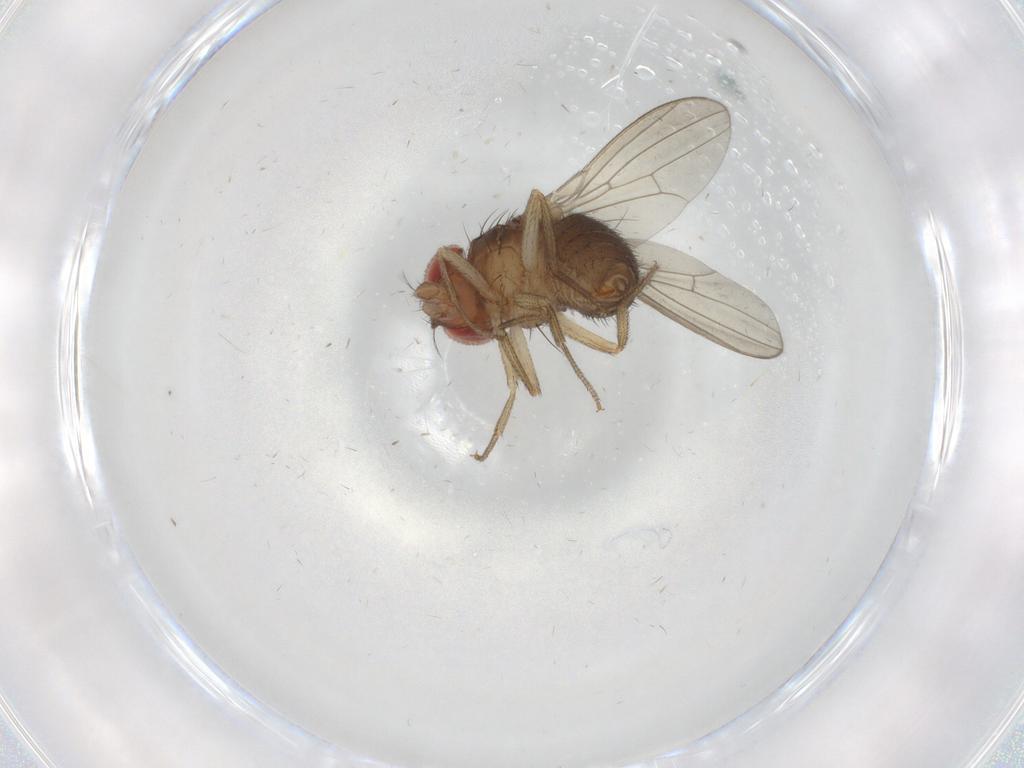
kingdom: Animalia
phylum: Arthropoda
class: Insecta
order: Diptera
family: Drosophilidae
